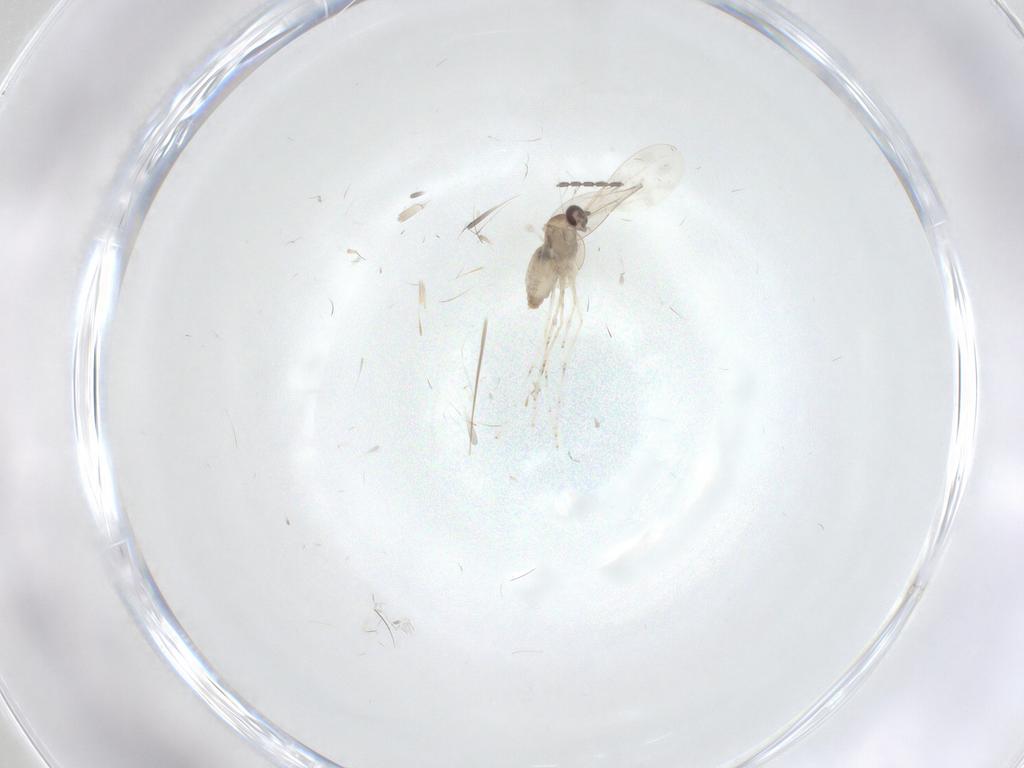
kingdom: Animalia
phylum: Arthropoda
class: Insecta
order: Diptera
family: Cecidomyiidae
